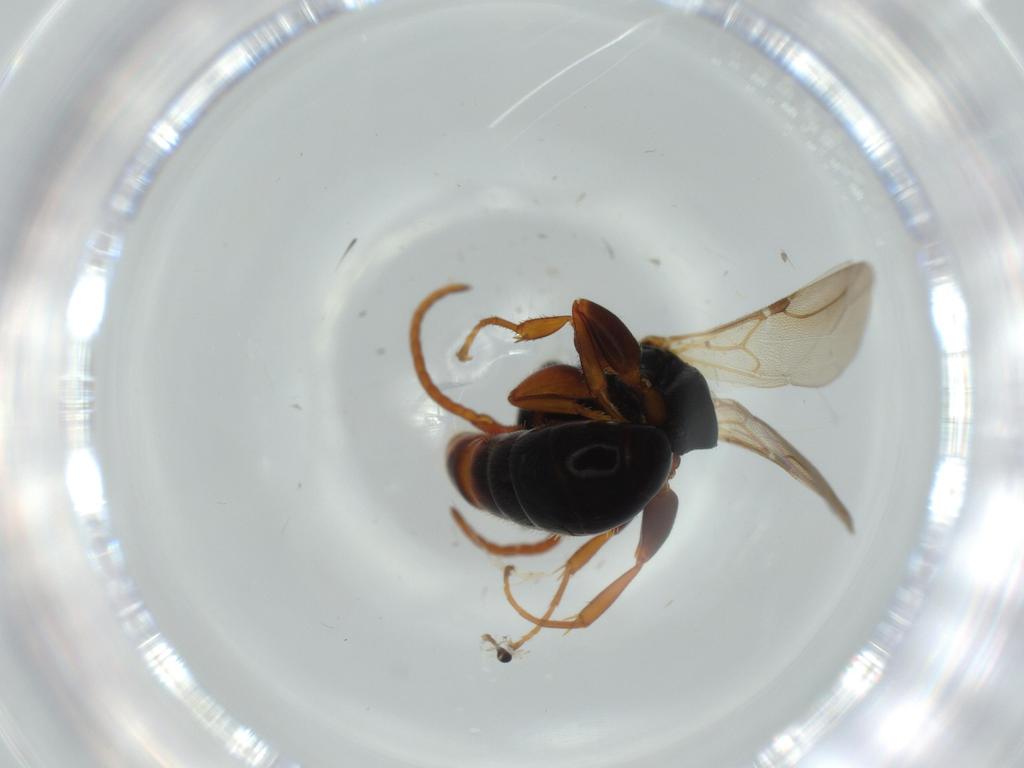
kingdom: Animalia
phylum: Arthropoda
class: Insecta
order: Hymenoptera
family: Bethylidae
